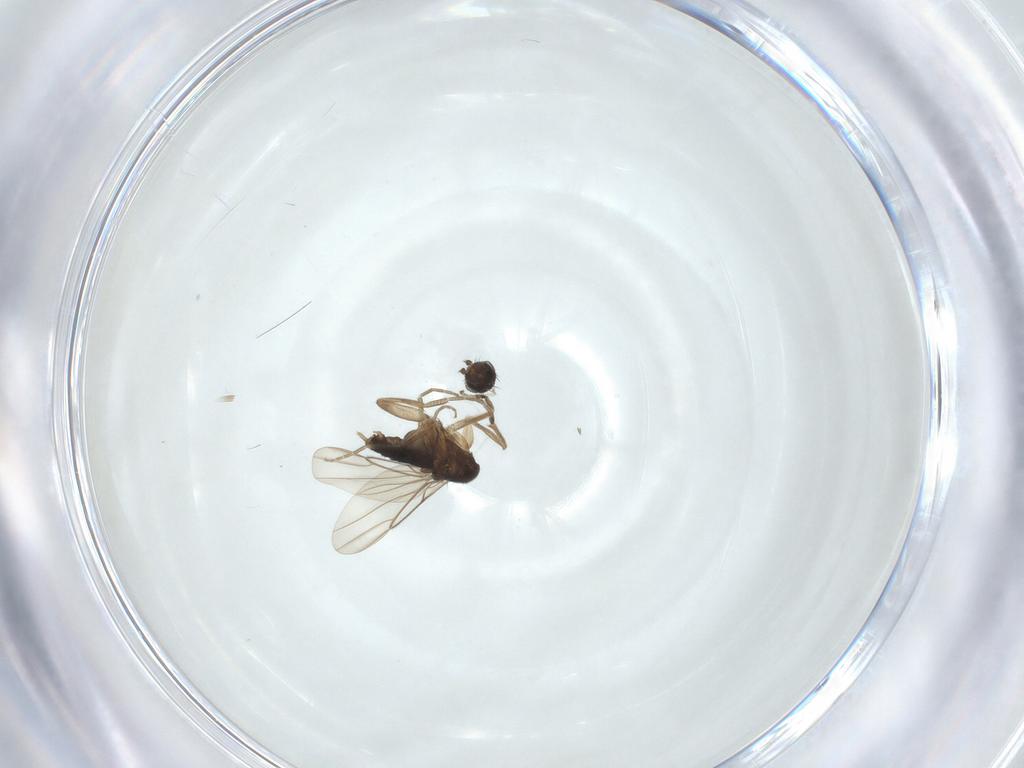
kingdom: Animalia
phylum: Arthropoda
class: Insecta
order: Diptera
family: Phoridae
